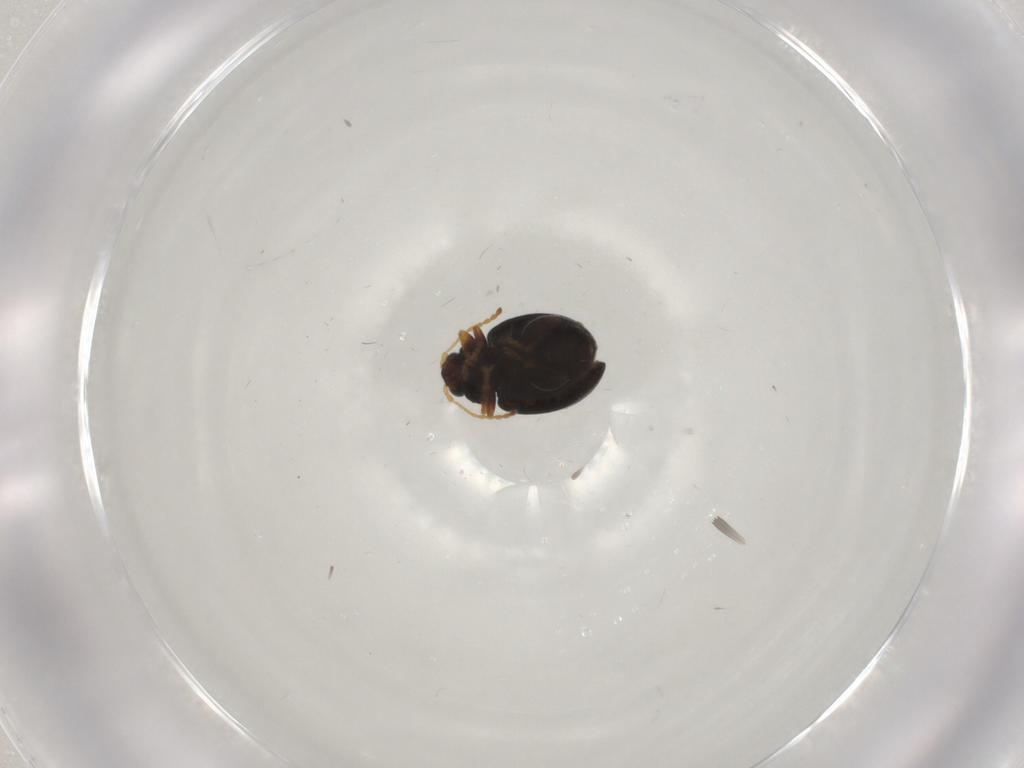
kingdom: Animalia
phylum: Arthropoda
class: Insecta
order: Coleoptera
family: Chrysomelidae
